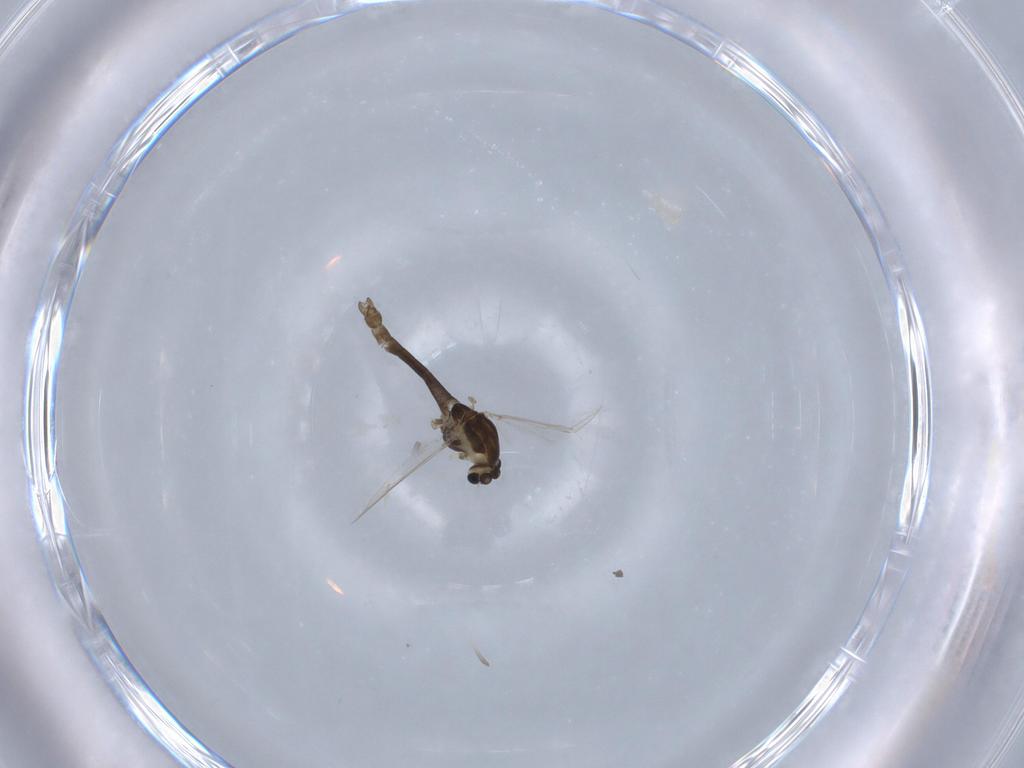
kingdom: Animalia
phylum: Arthropoda
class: Insecta
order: Diptera
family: Chironomidae
